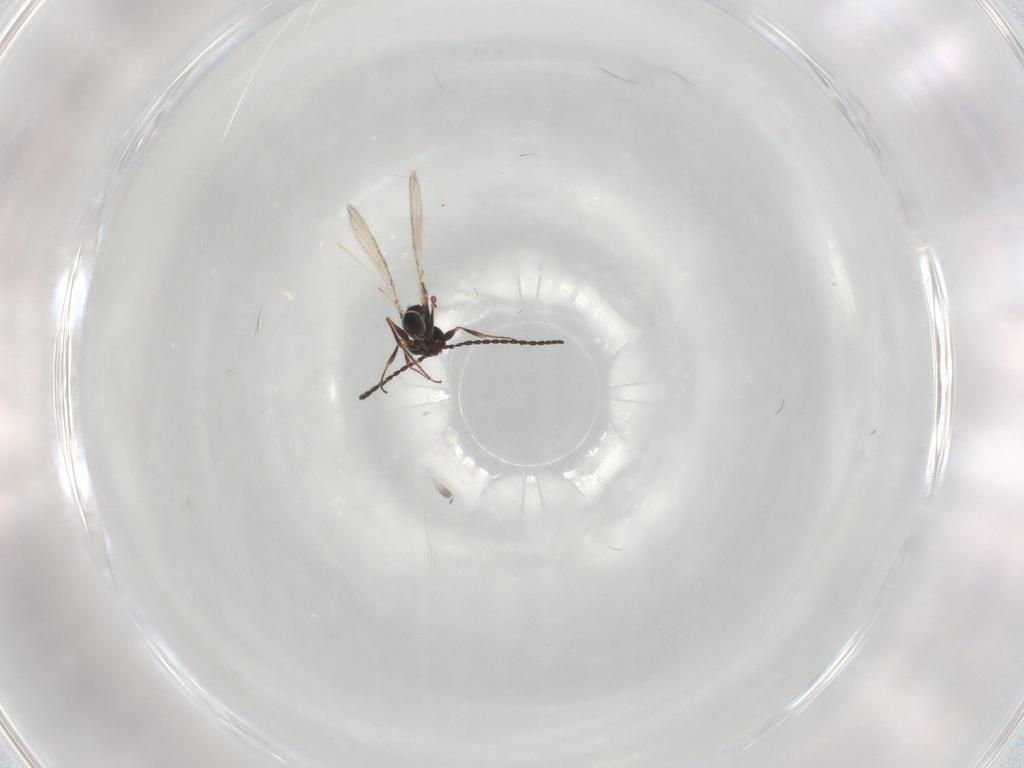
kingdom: Animalia
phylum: Arthropoda
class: Insecta
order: Hymenoptera
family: Figitidae
